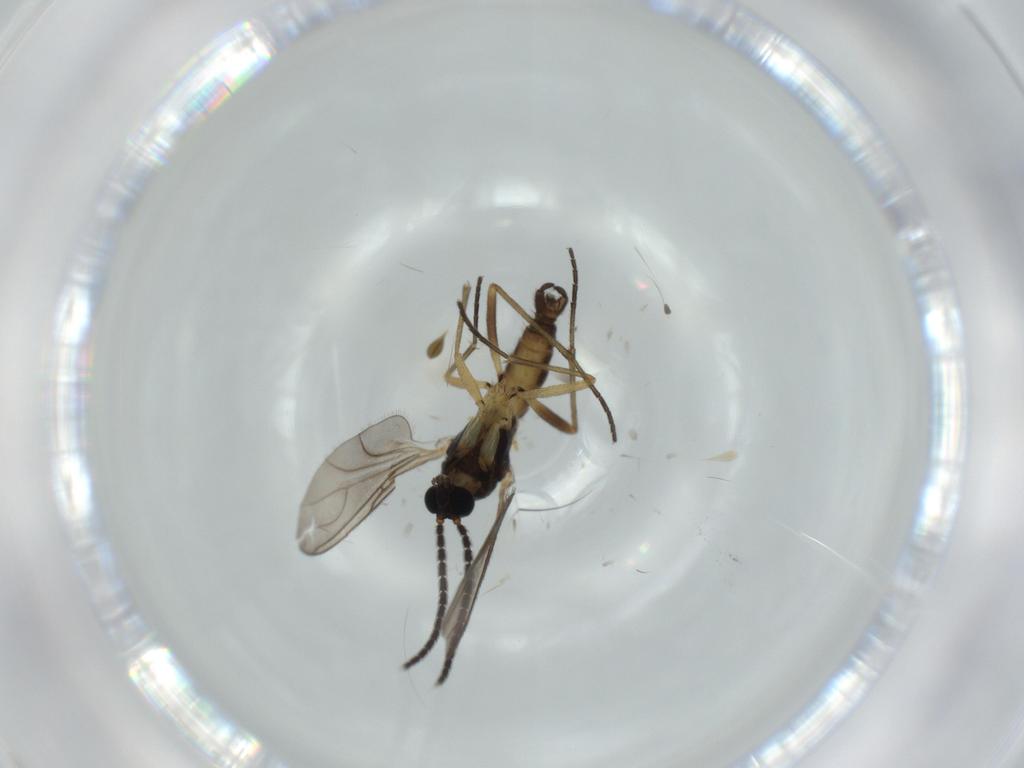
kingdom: Animalia
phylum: Arthropoda
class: Insecta
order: Diptera
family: Sciaridae
